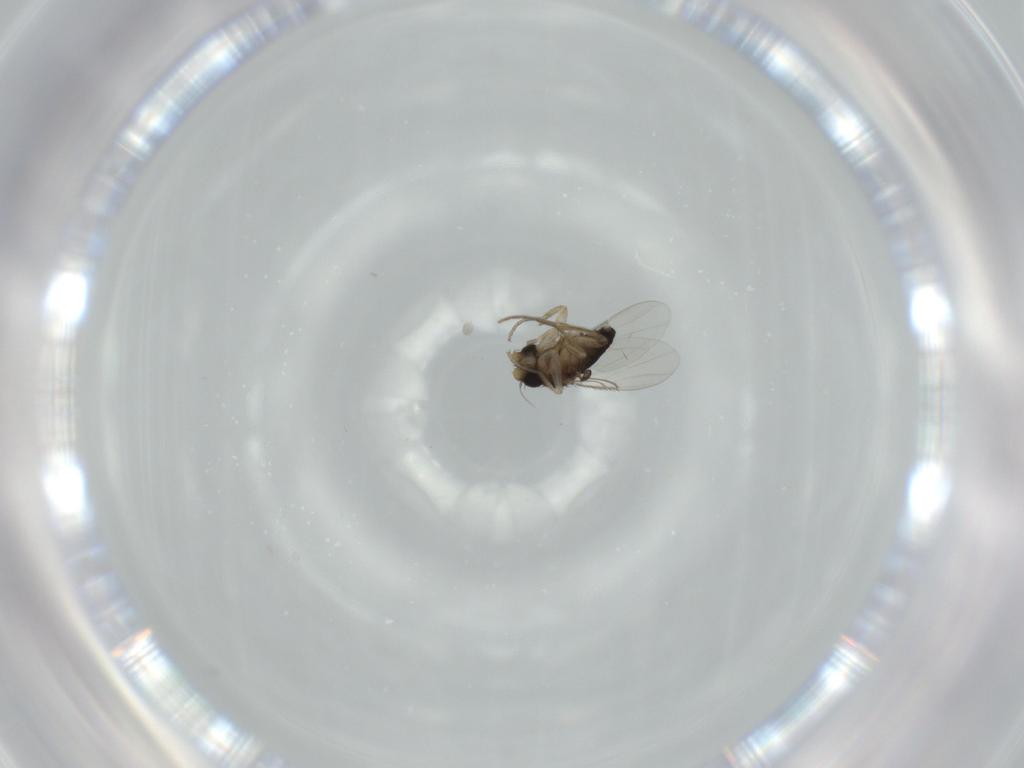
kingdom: Animalia
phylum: Arthropoda
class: Insecta
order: Diptera
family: Phoridae
